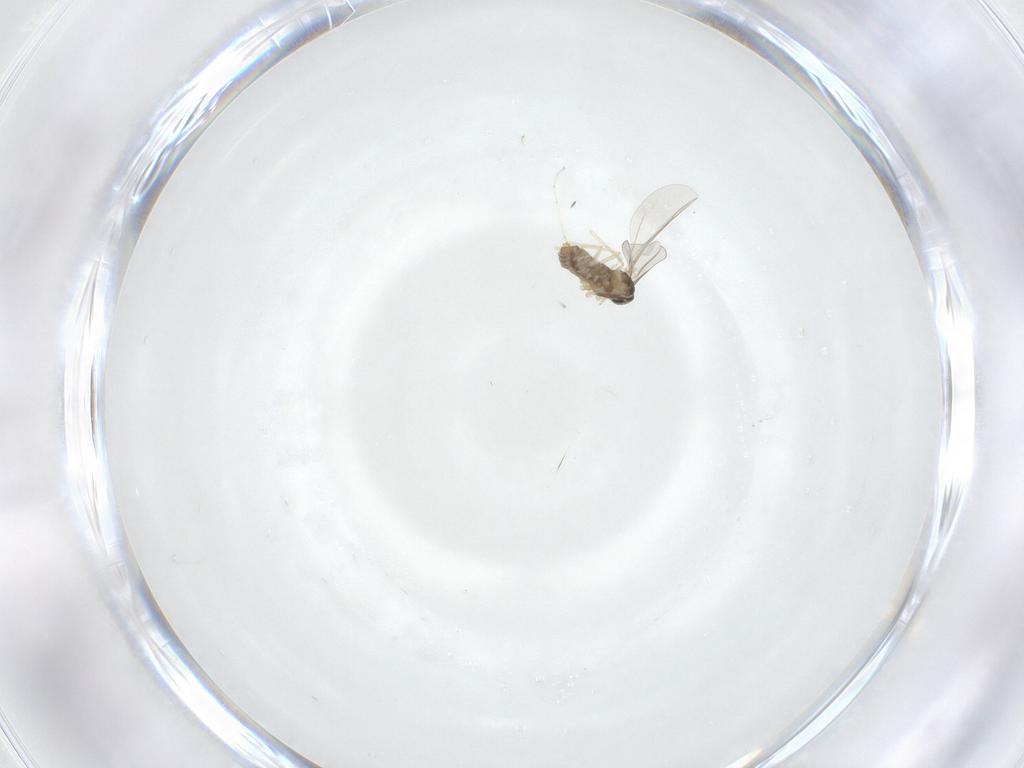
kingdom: Animalia
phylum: Arthropoda
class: Insecta
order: Diptera
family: Cecidomyiidae
